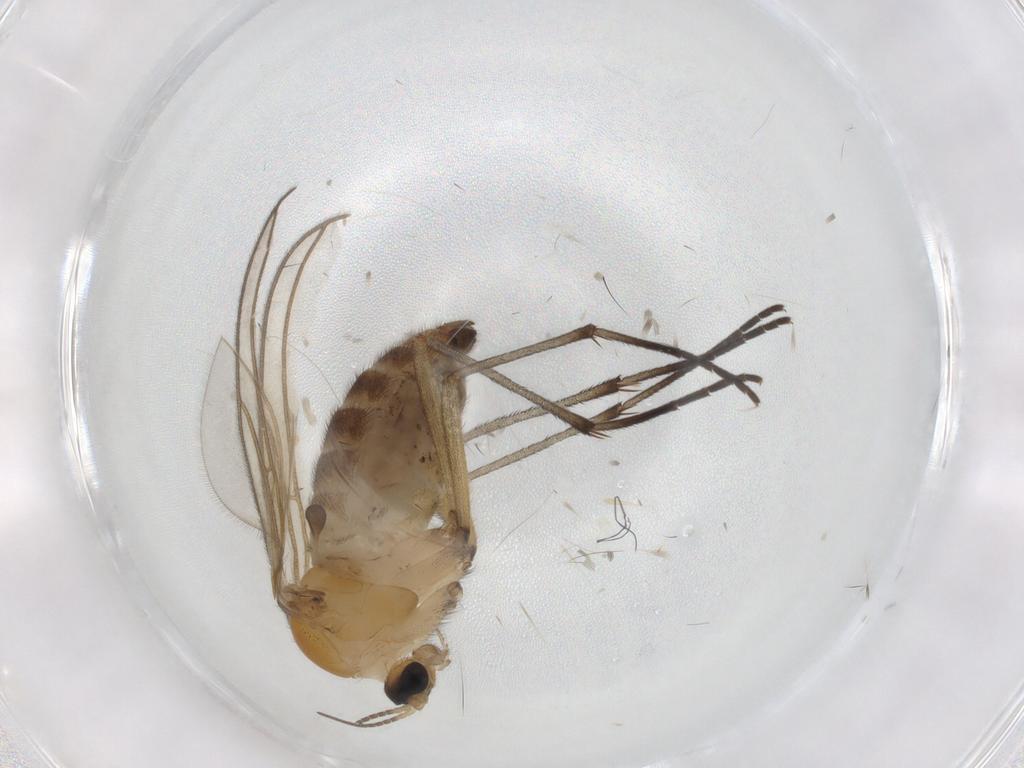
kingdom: Animalia
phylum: Arthropoda
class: Insecta
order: Diptera
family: Sciaridae
